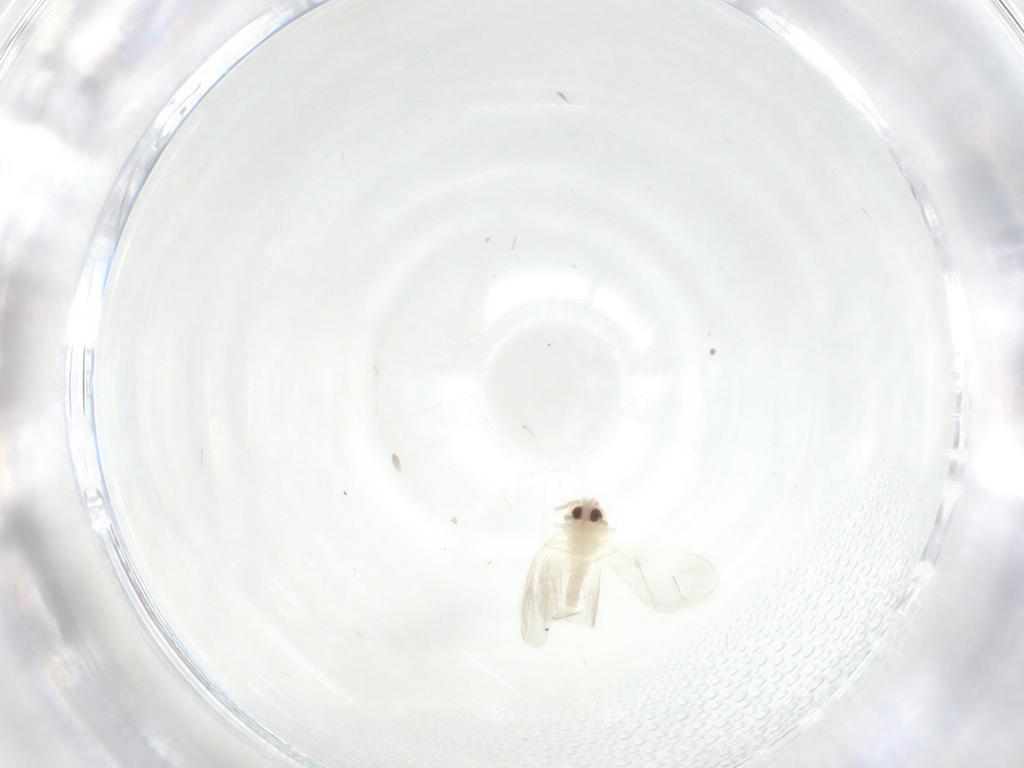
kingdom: Animalia
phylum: Arthropoda
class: Insecta
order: Hemiptera
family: Aleyrodidae
